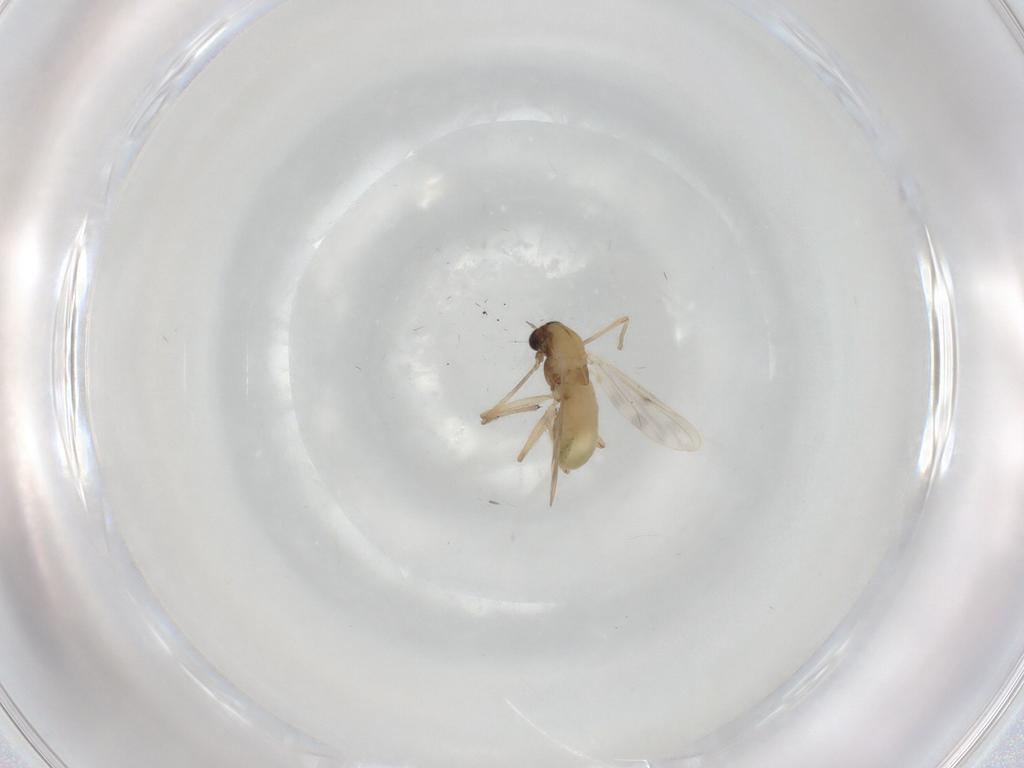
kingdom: Animalia
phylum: Arthropoda
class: Insecta
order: Diptera
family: Chironomidae
